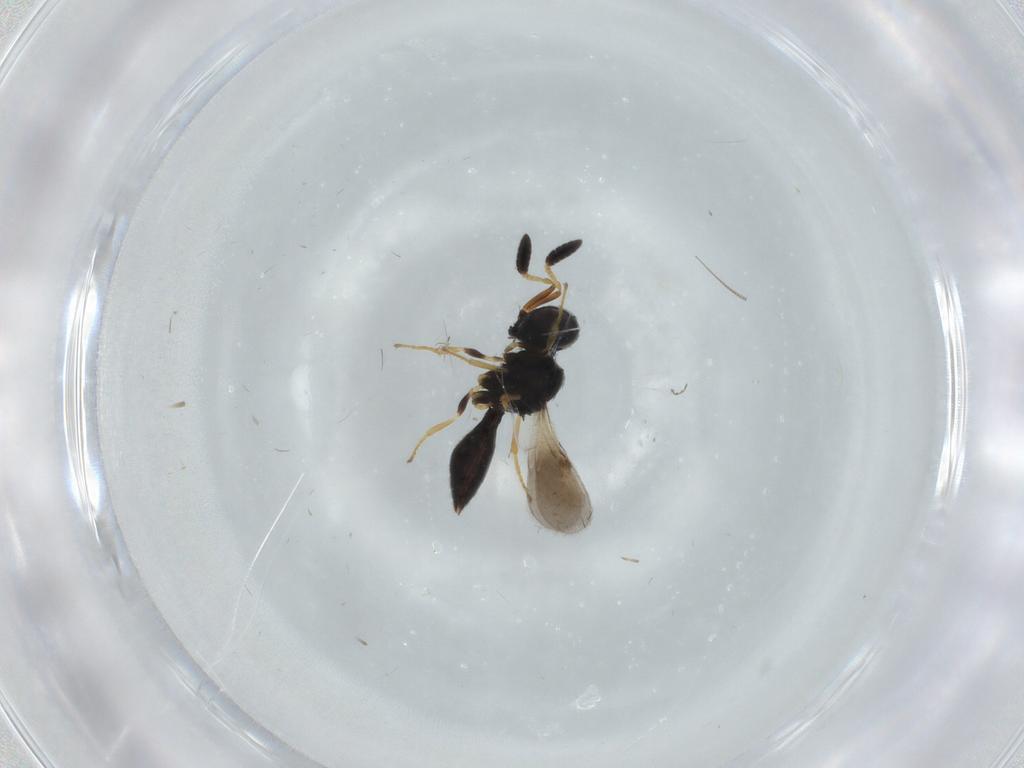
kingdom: Animalia
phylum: Arthropoda
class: Insecta
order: Hymenoptera
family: Scelionidae
